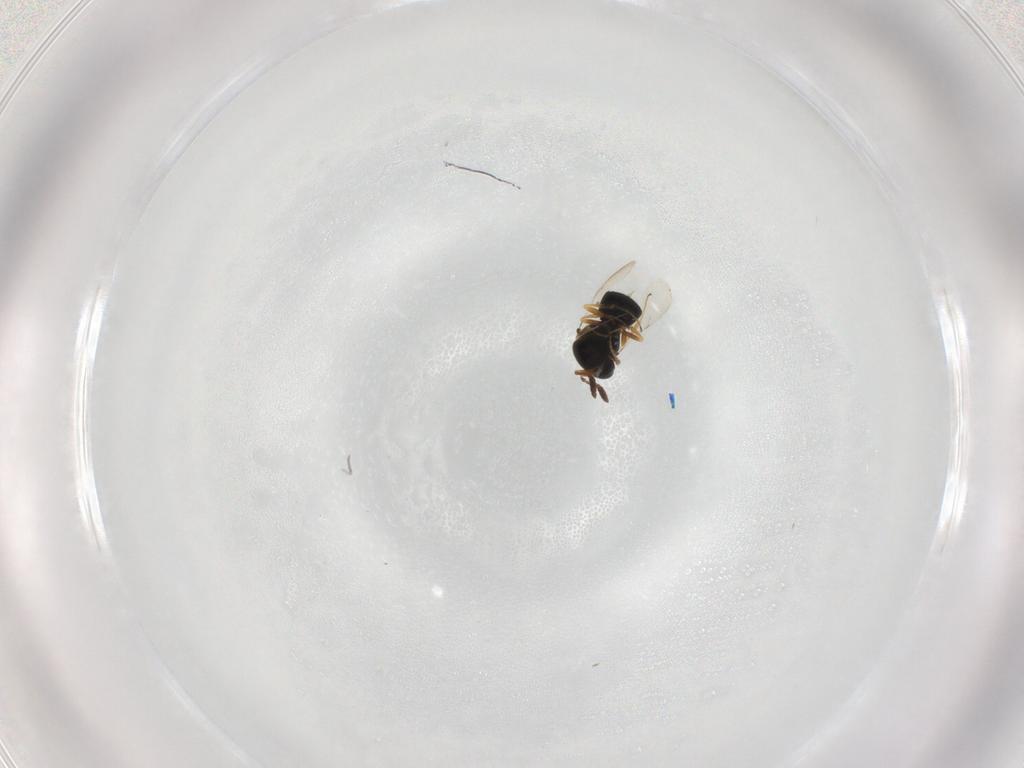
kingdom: Animalia
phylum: Arthropoda
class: Insecta
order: Hymenoptera
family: Scelionidae
